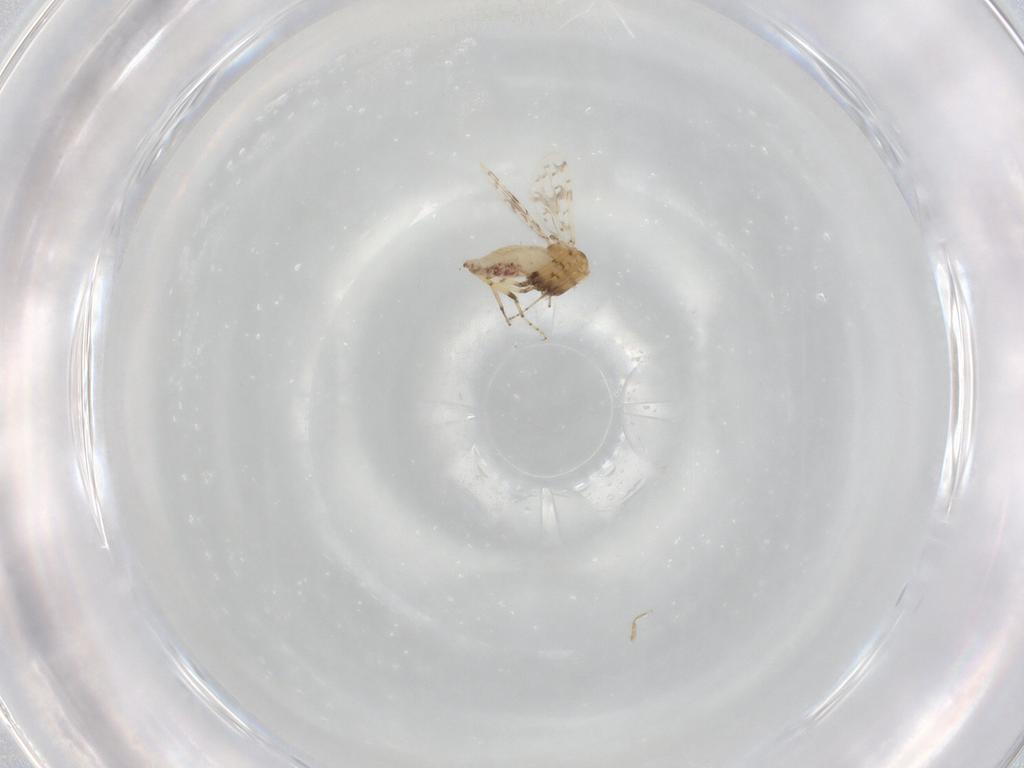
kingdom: Animalia
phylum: Arthropoda
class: Insecta
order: Diptera
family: Ceratopogonidae
